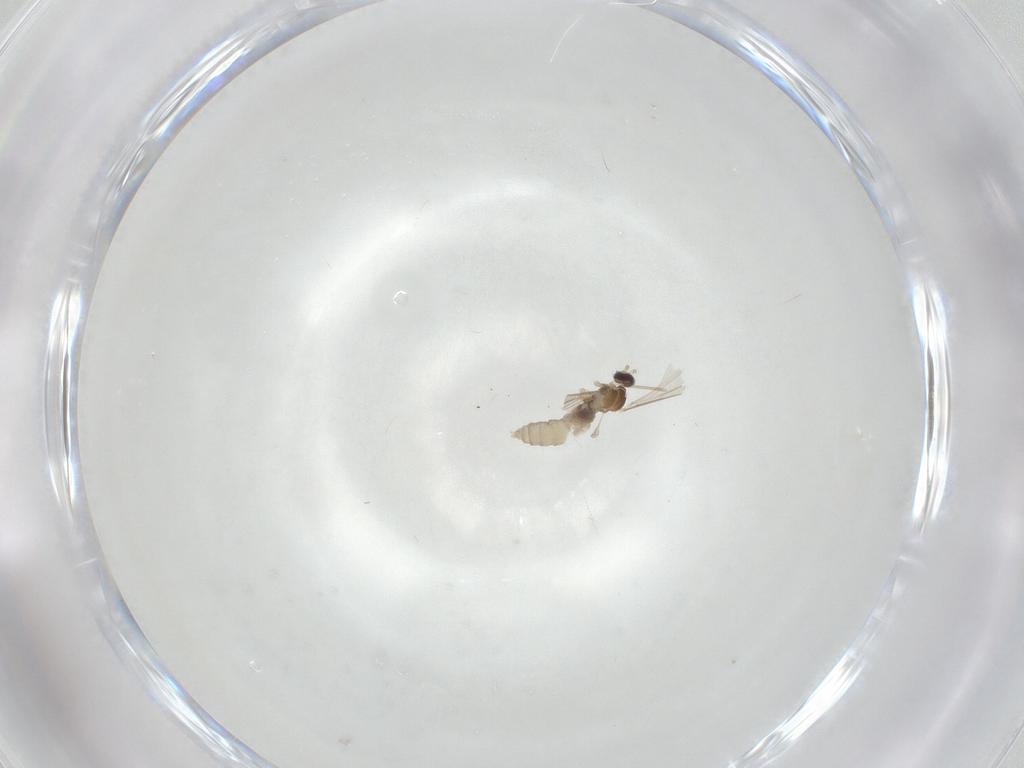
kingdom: Animalia
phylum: Arthropoda
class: Insecta
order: Diptera
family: Cecidomyiidae
